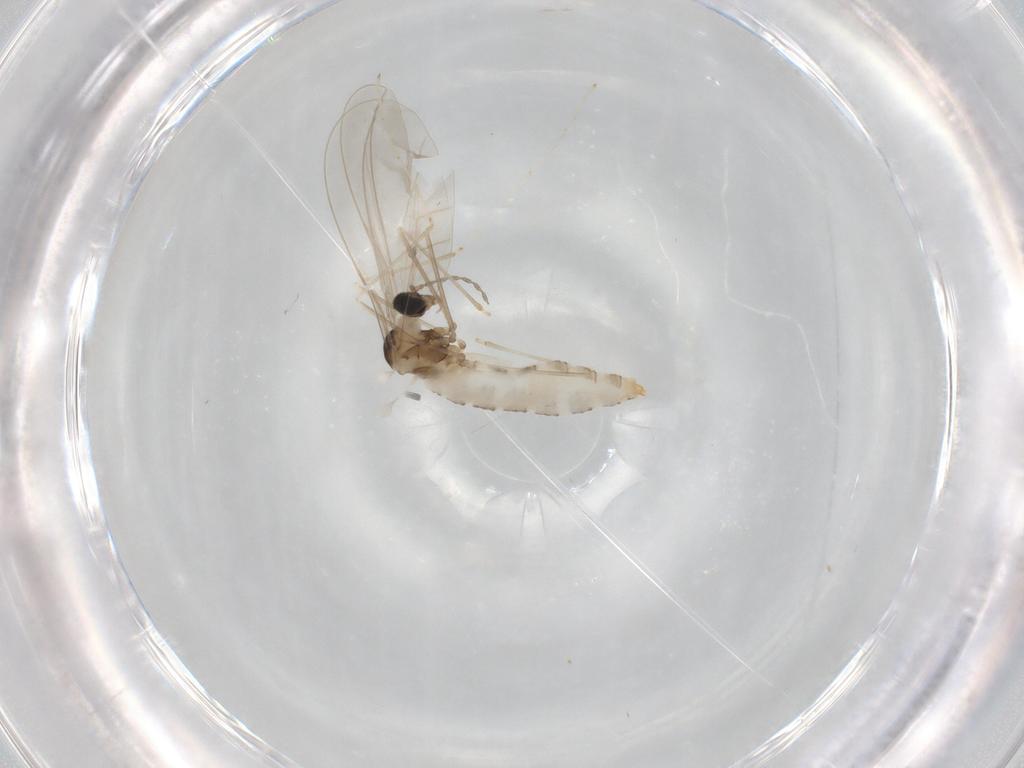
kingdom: Animalia
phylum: Arthropoda
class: Insecta
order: Diptera
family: Cecidomyiidae
